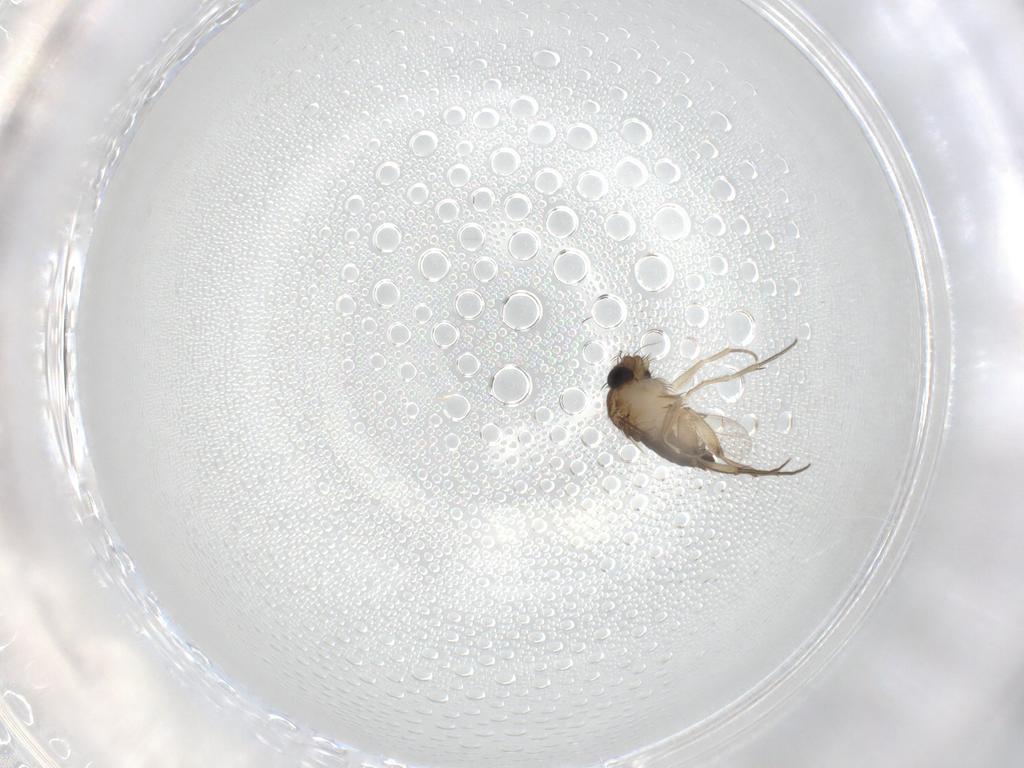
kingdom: Animalia
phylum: Arthropoda
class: Insecta
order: Diptera
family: Phoridae
